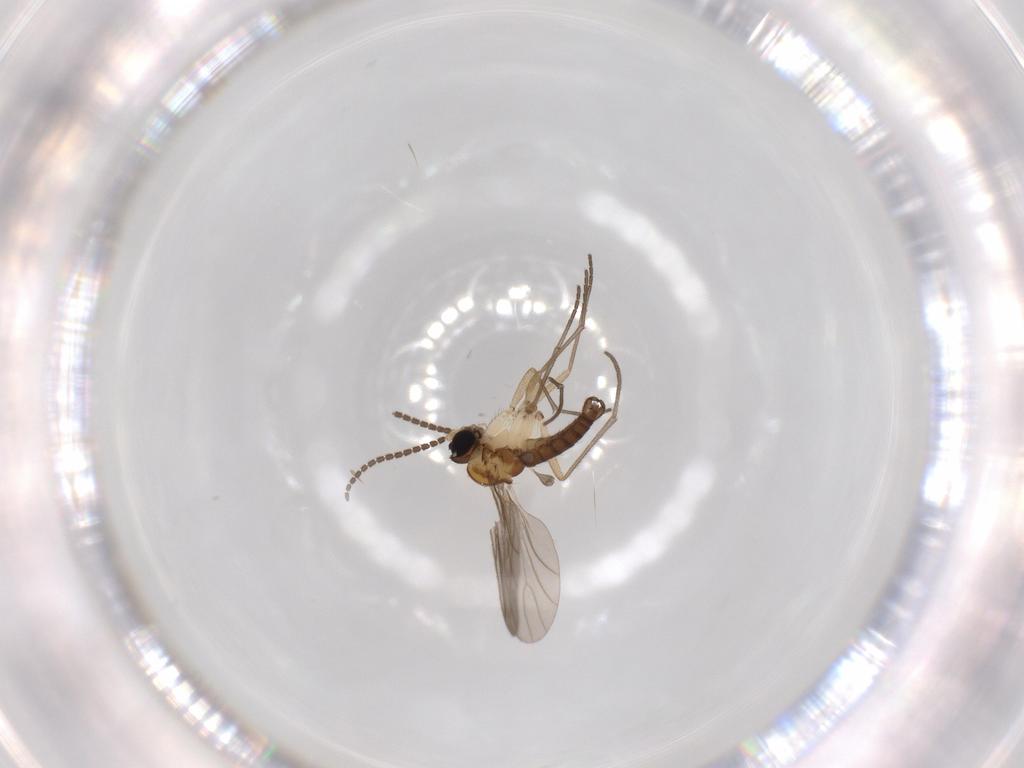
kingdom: Animalia
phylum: Arthropoda
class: Insecta
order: Diptera
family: Sciaridae
